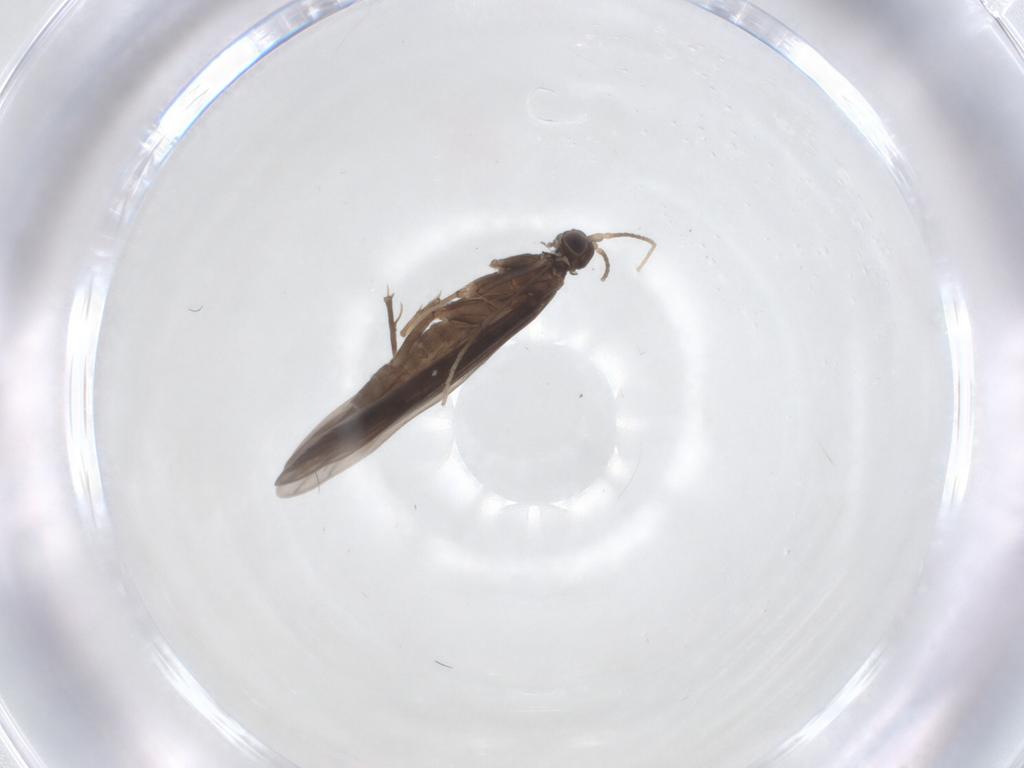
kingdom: Animalia
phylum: Arthropoda
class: Insecta
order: Trichoptera
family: Xiphocentronidae
